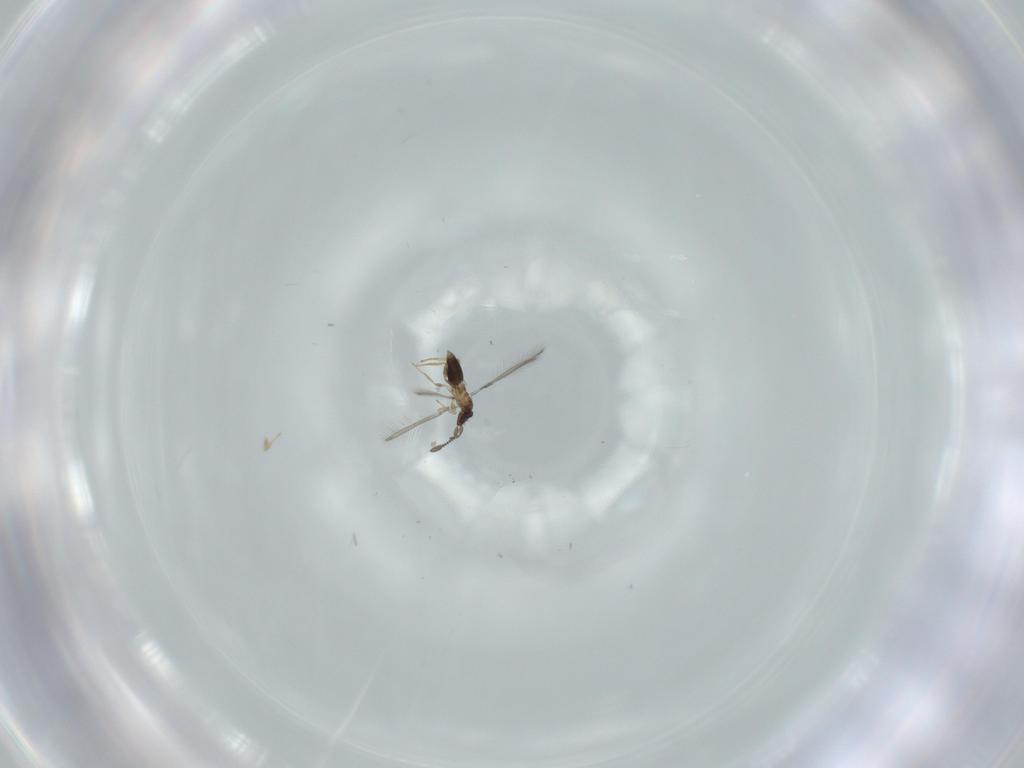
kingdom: Animalia
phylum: Arthropoda
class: Insecta
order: Hymenoptera
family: Mymaridae
